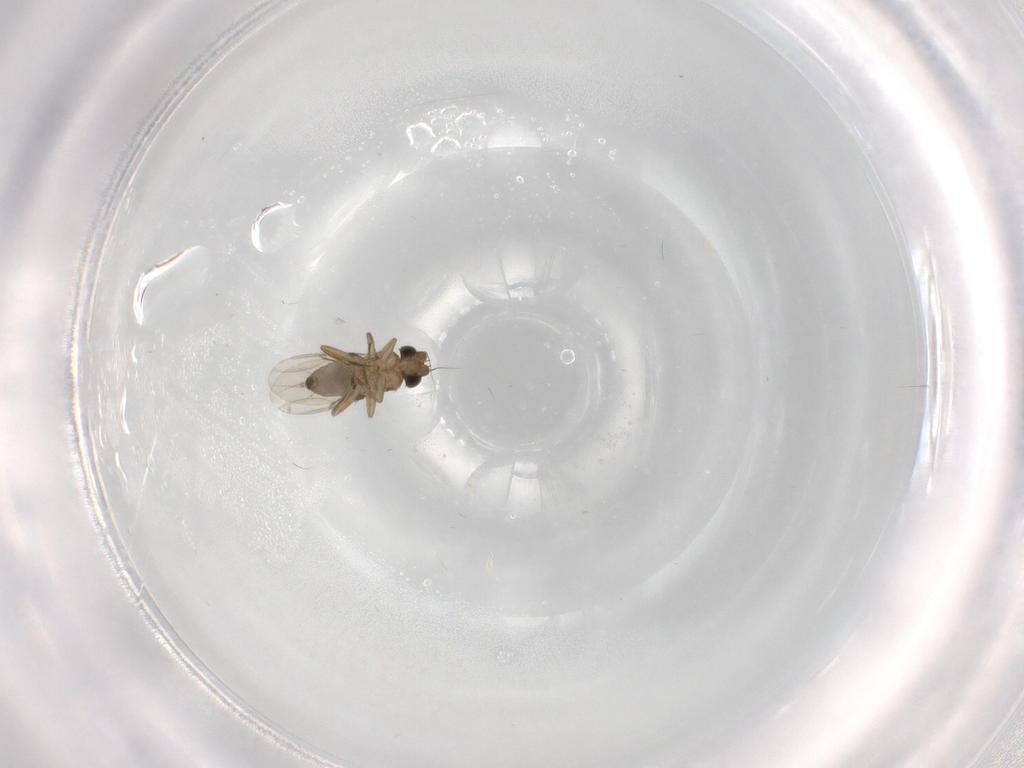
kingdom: Animalia
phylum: Arthropoda
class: Insecta
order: Diptera
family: Phoridae
